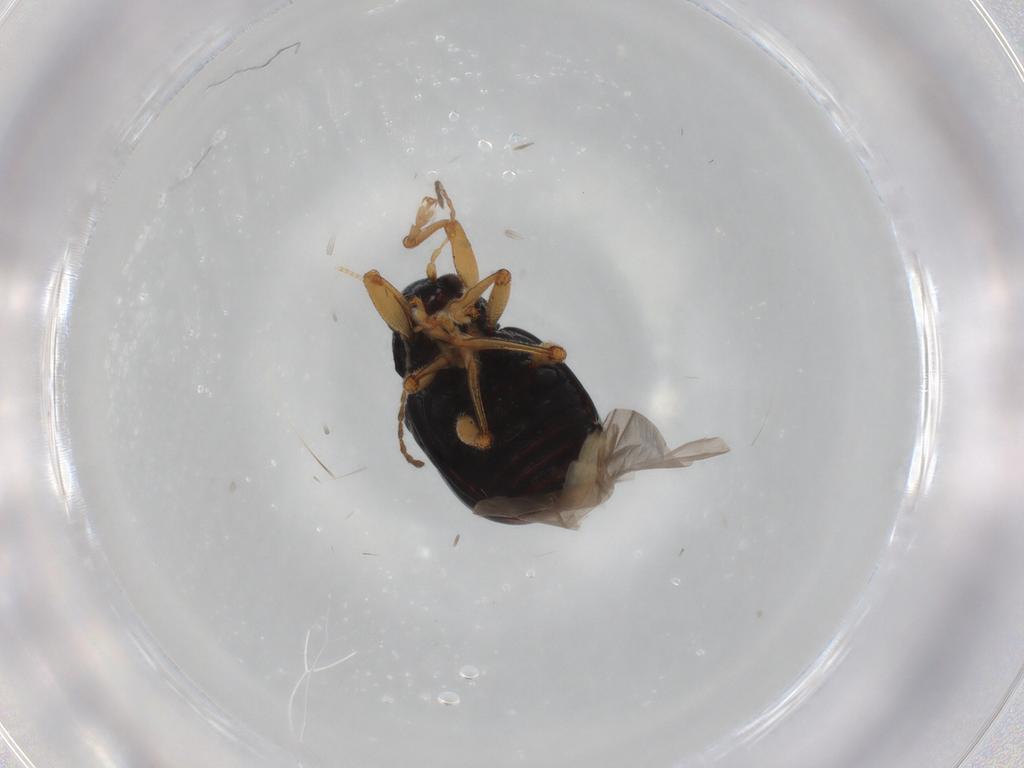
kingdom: Animalia
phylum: Arthropoda
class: Insecta
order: Coleoptera
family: Chrysomelidae
